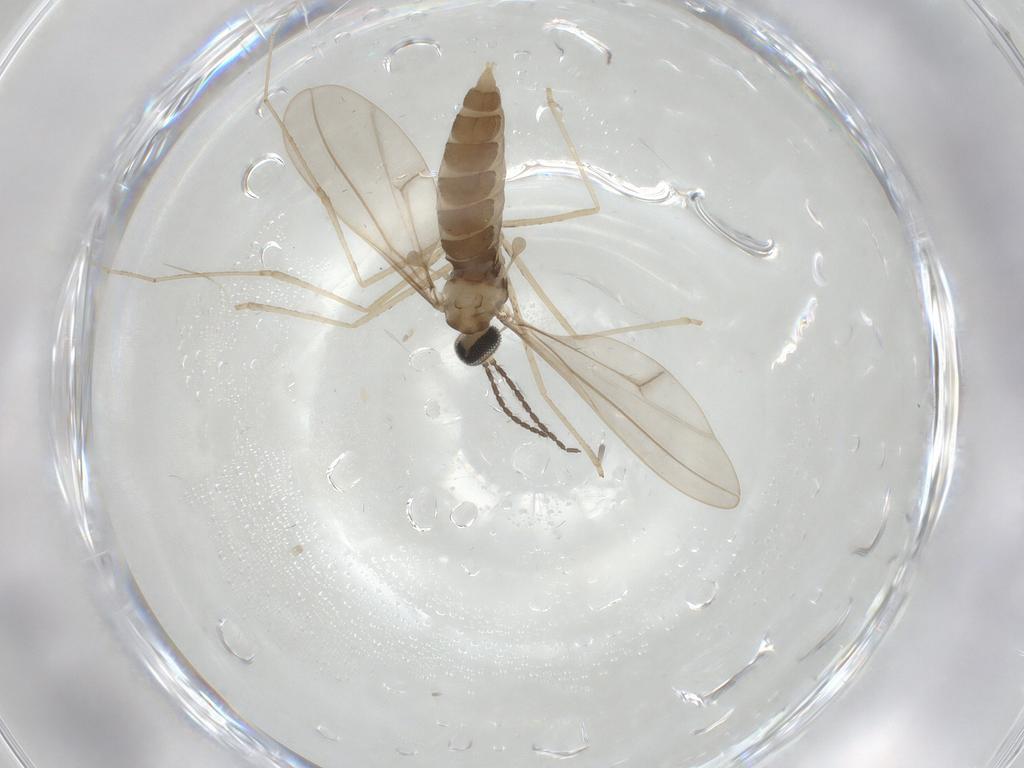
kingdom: Animalia
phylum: Arthropoda
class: Insecta
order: Diptera
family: Cecidomyiidae
